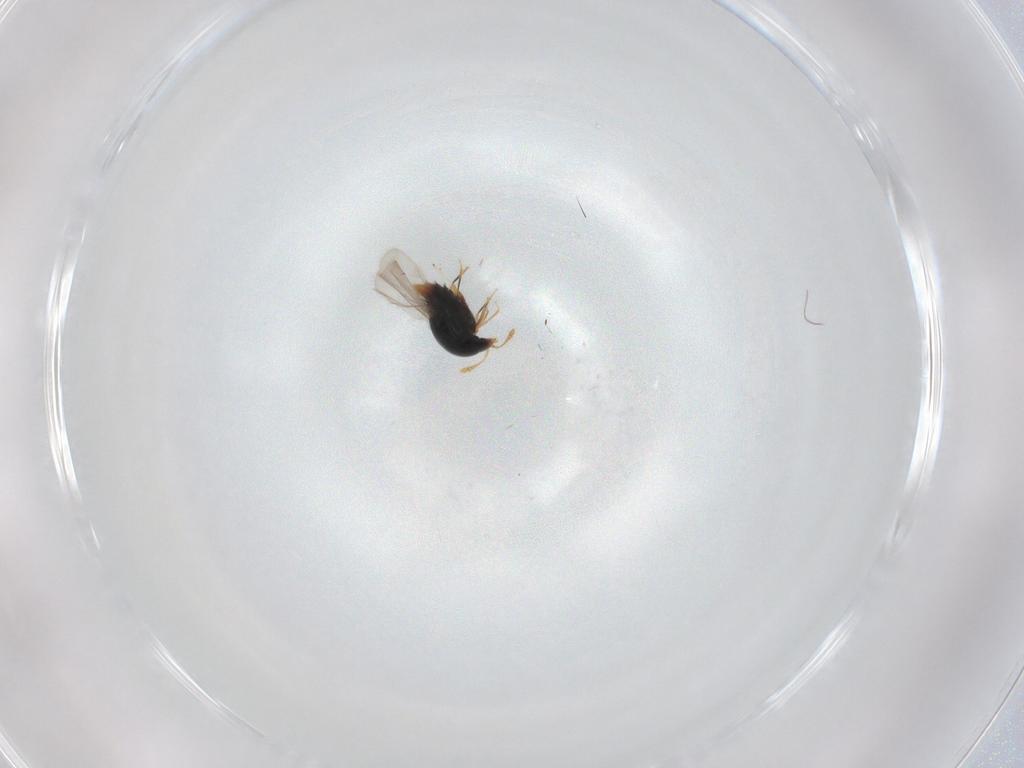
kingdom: Animalia
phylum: Arthropoda
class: Insecta
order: Coleoptera
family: Staphylinidae
